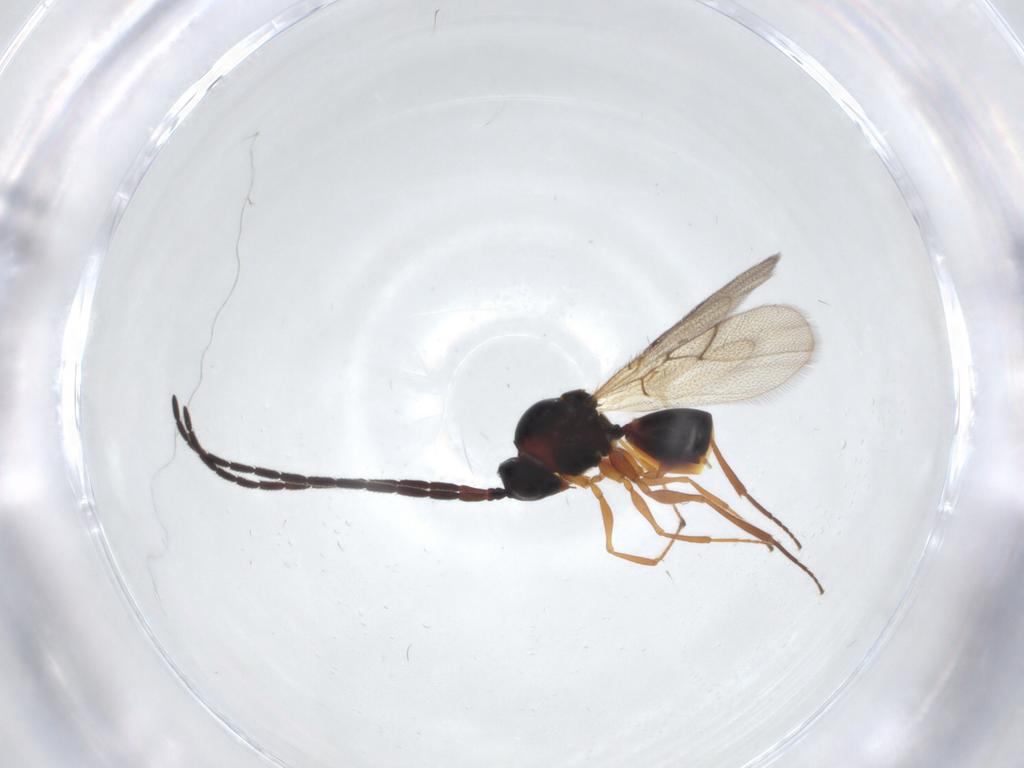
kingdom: Animalia
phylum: Arthropoda
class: Insecta
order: Hymenoptera
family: Figitidae
